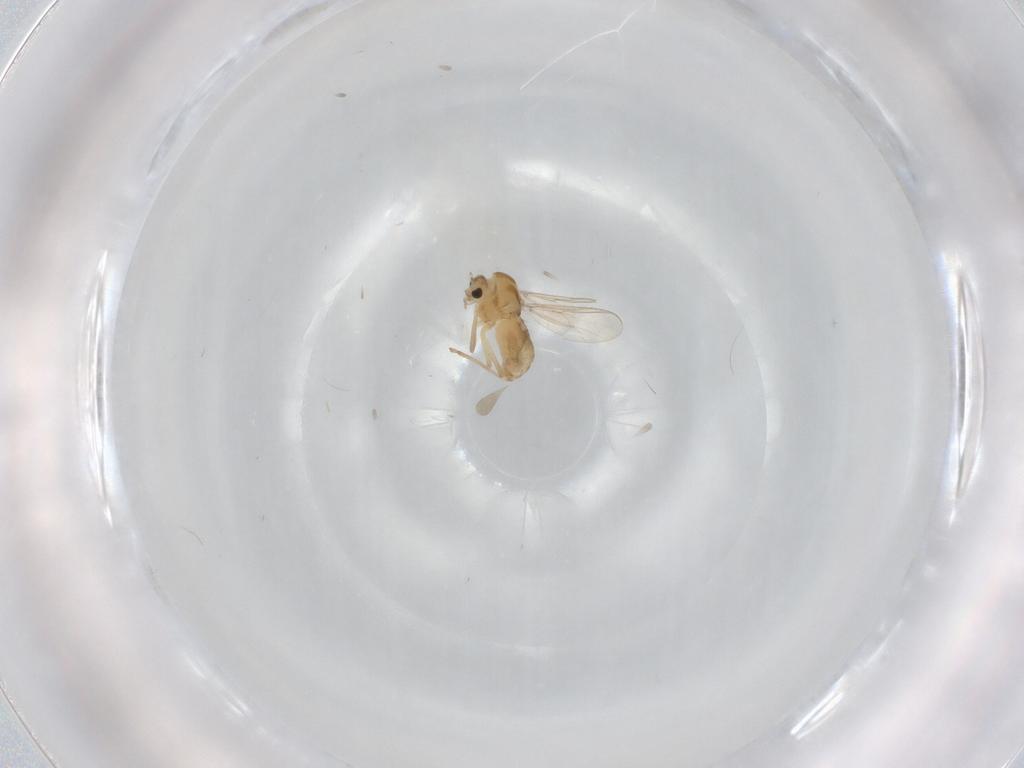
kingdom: Animalia
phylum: Arthropoda
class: Insecta
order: Diptera
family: Chironomidae
